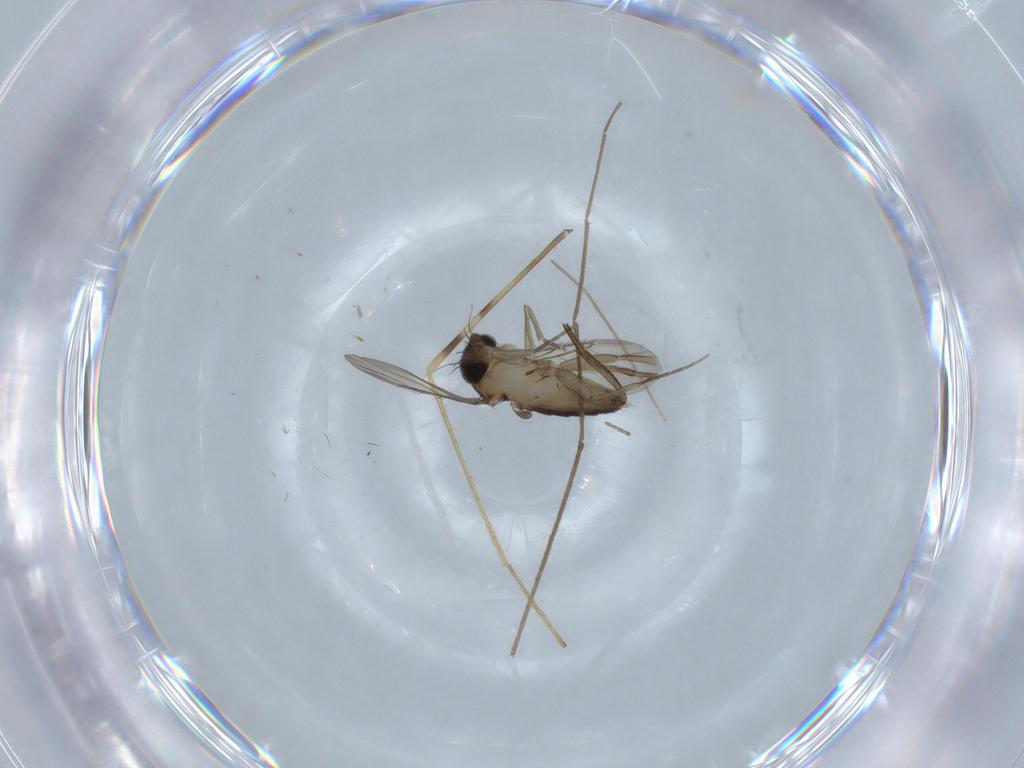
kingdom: Animalia
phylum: Arthropoda
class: Insecta
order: Diptera
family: Phoridae
